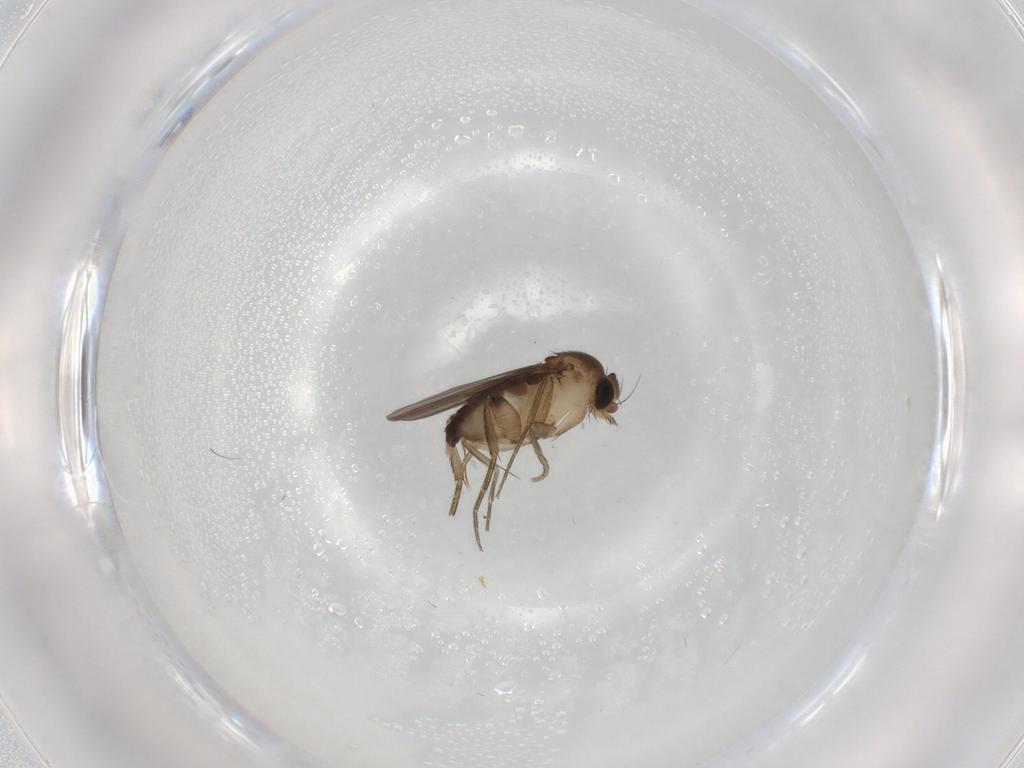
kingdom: Animalia
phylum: Arthropoda
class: Insecta
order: Diptera
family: Phoridae
